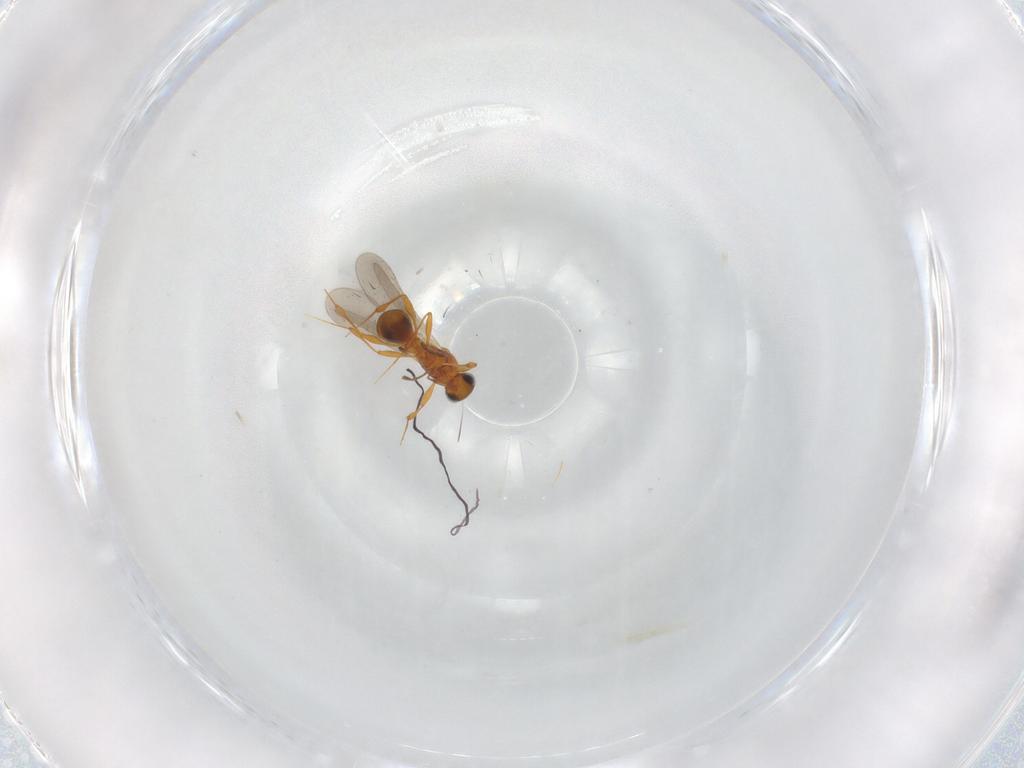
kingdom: Animalia
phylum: Arthropoda
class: Insecta
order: Hymenoptera
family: Platygastridae
